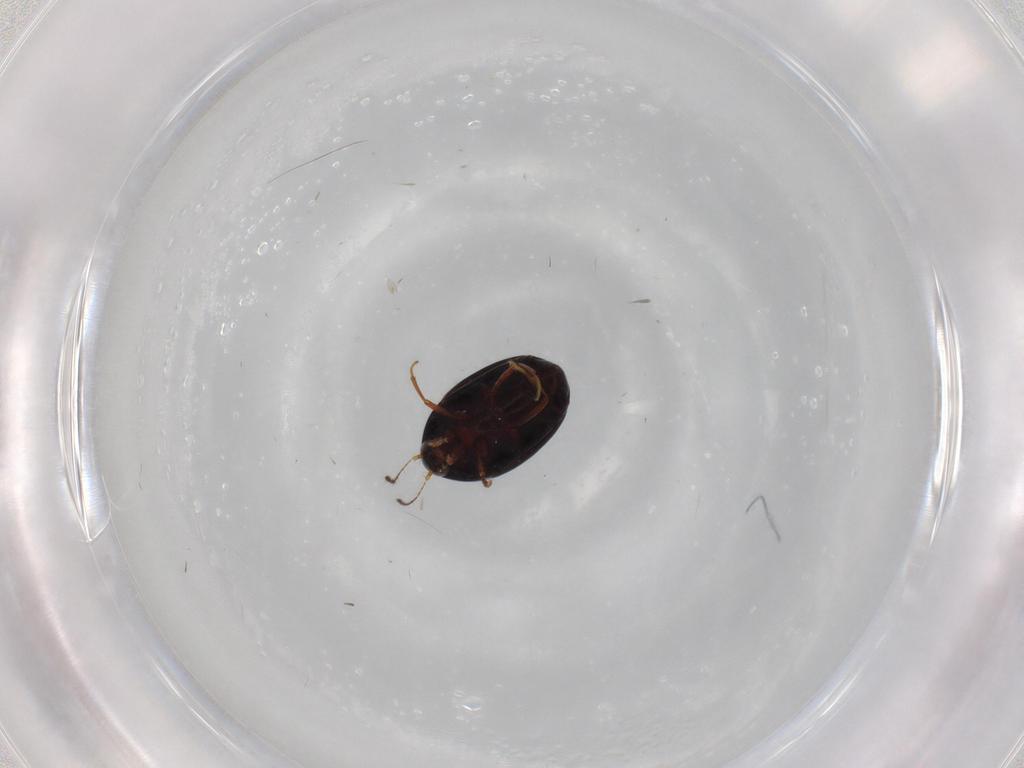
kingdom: Animalia
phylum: Arthropoda
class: Insecta
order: Coleoptera
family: Staphylinidae
